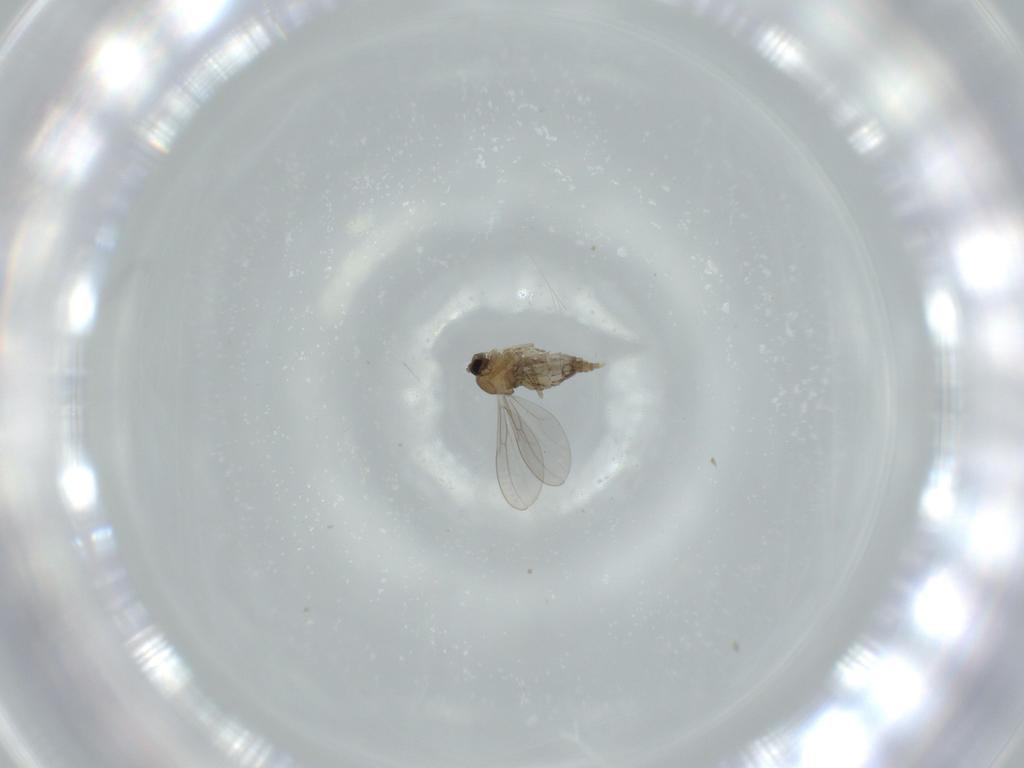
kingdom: Animalia
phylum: Arthropoda
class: Insecta
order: Diptera
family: Cecidomyiidae
